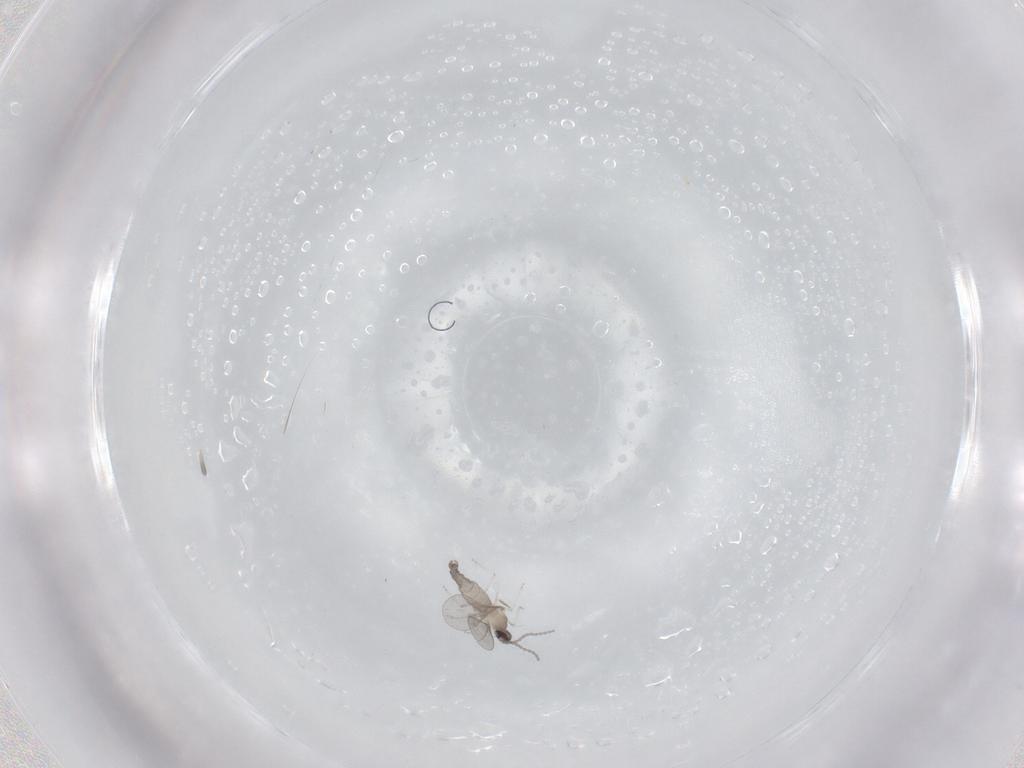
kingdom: Animalia
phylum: Arthropoda
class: Insecta
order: Diptera
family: Cecidomyiidae
